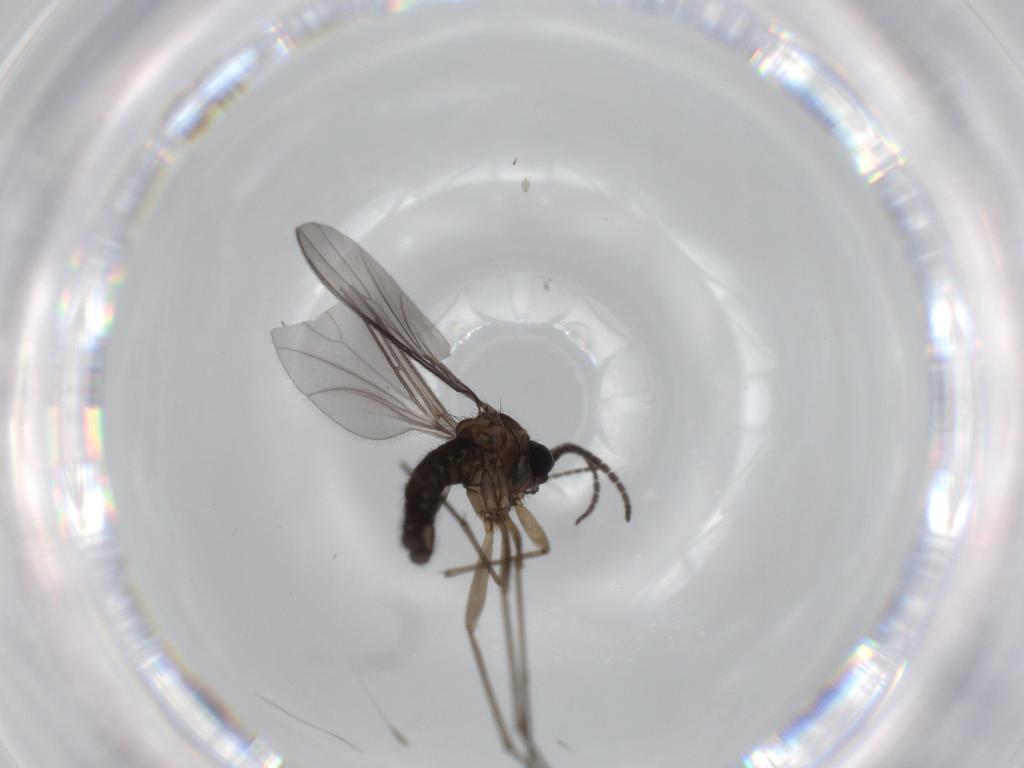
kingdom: Animalia
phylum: Arthropoda
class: Insecta
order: Diptera
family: Sciaridae
